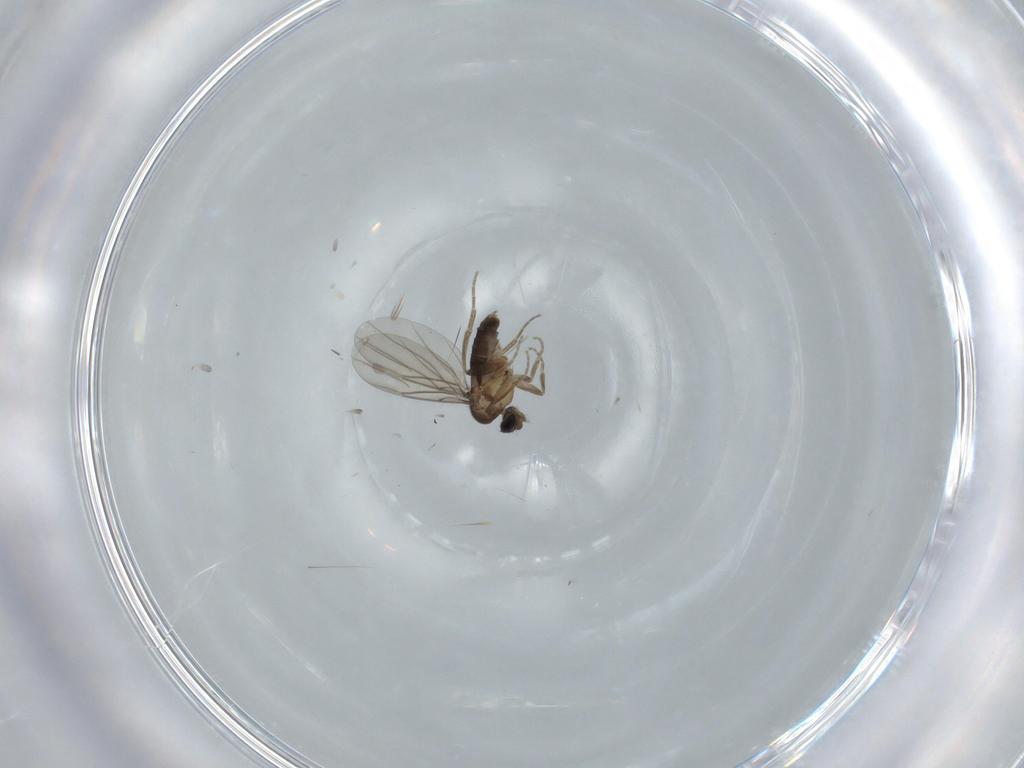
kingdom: Animalia
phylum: Arthropoda
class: Insecta
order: Diptera
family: Phoridae
